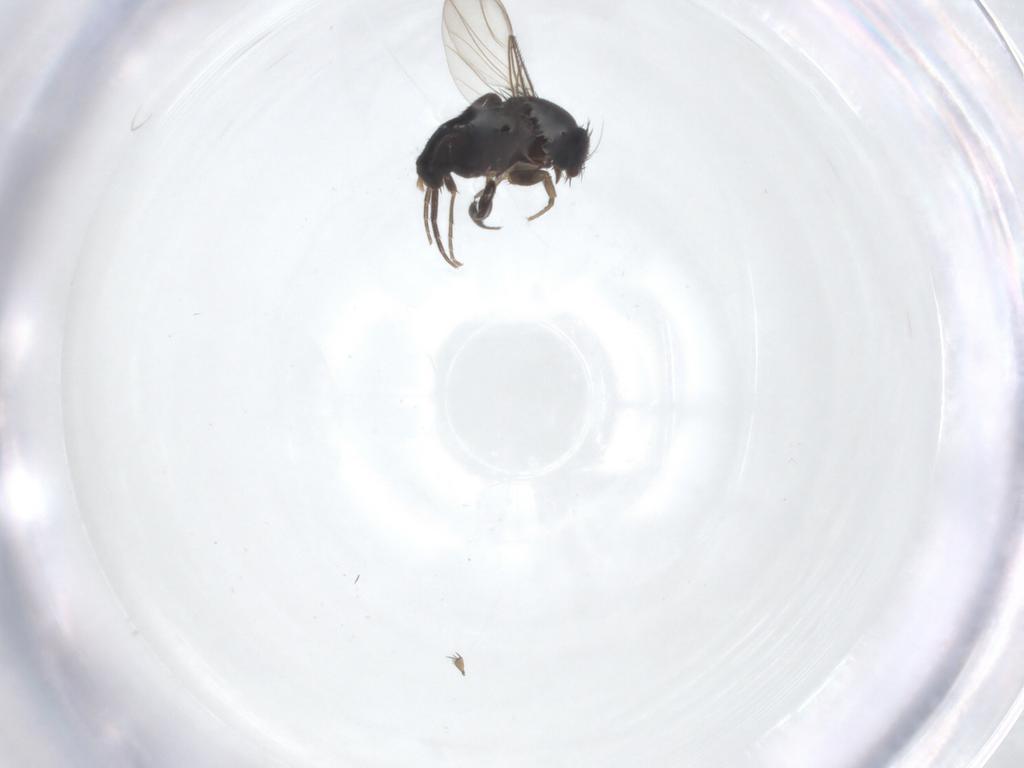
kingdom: Animalia
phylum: Arthropoda
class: Insecta
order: Diptera
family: Phoridae
